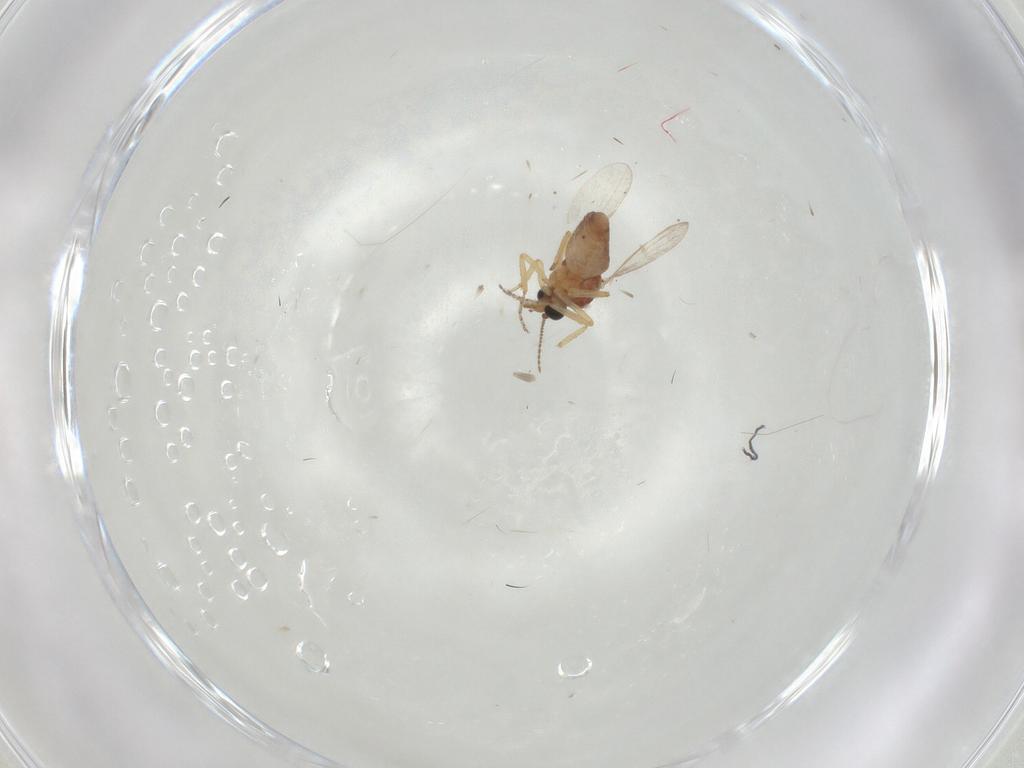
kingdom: Animalia
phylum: Arthropoda
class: Insecta
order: Diptera
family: Ceratopogonidae
